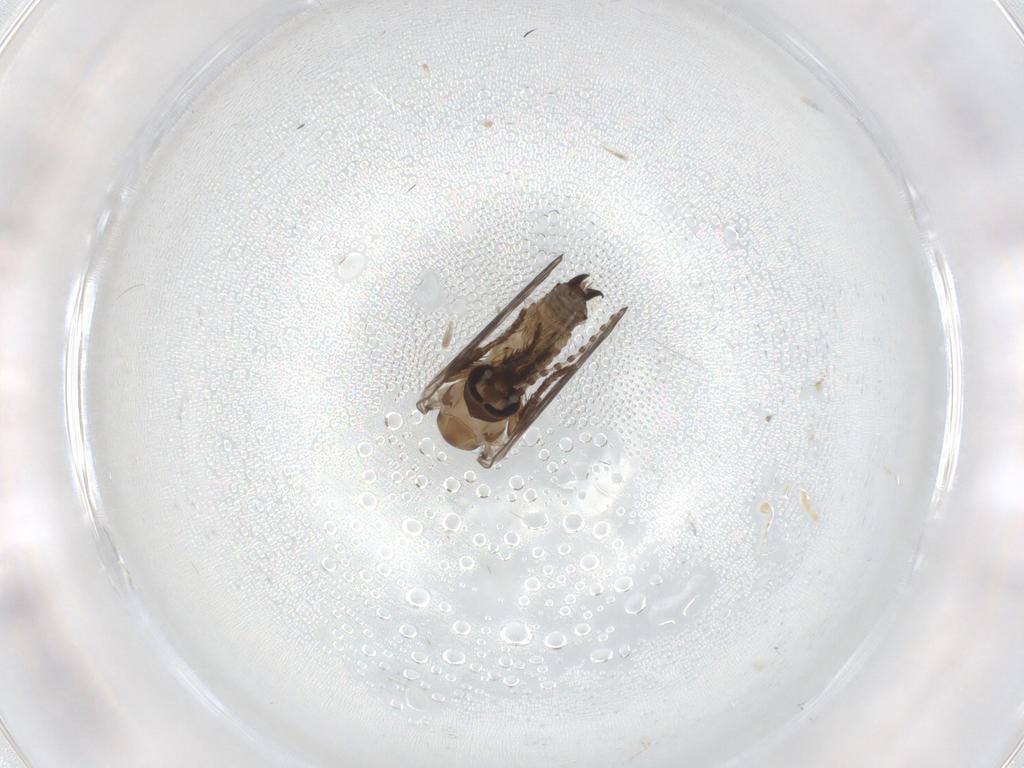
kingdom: Animalia
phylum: Arthropoda
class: Insecta
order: Diptera
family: Psychodidae
